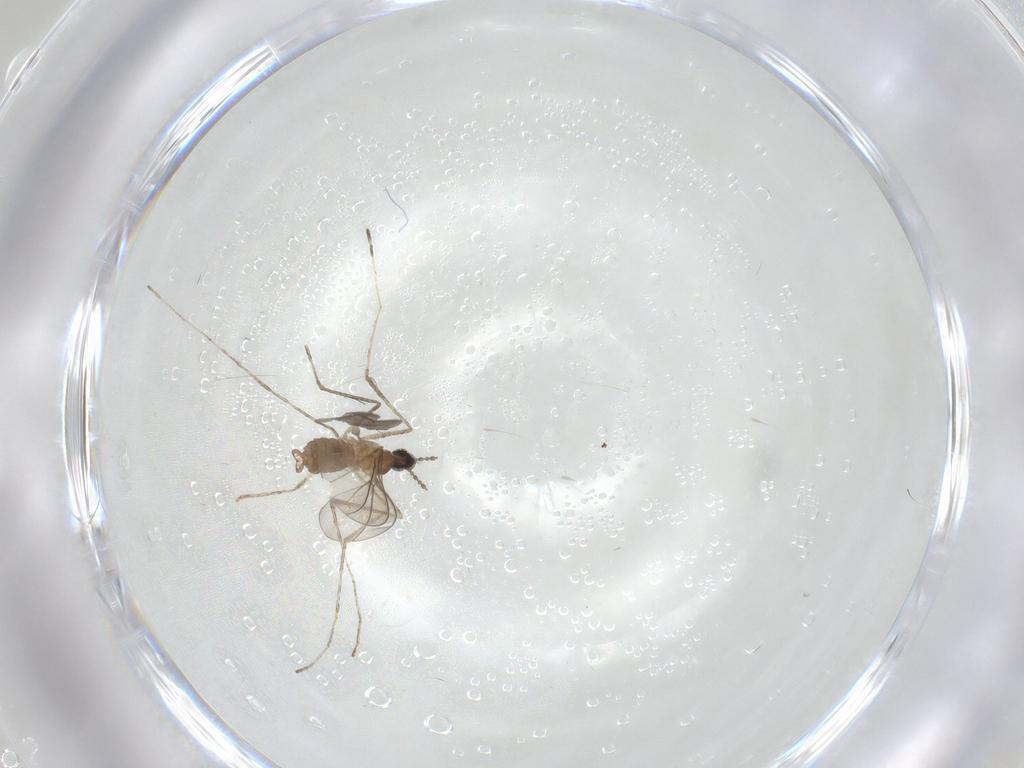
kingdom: Animalia
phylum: Arthropoda
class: Insecta
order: Diptera
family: Cecidomyiidae
